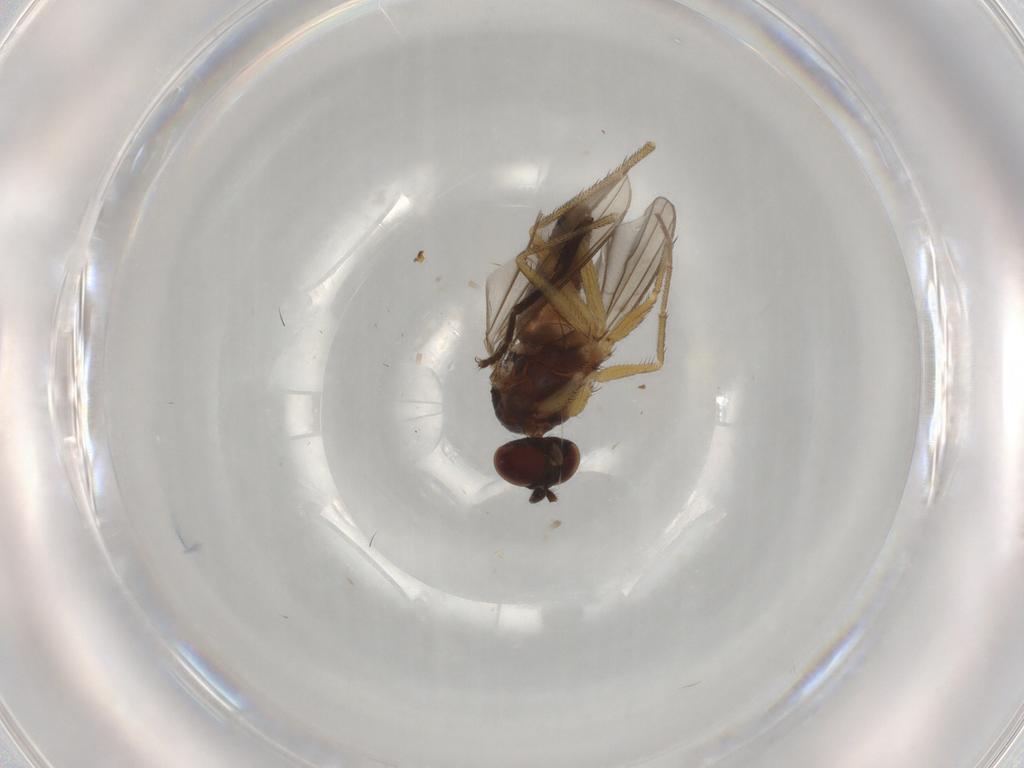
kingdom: Animalia
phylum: Arthropoda
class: Insecta
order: Diptera
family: Dolichopodidae
